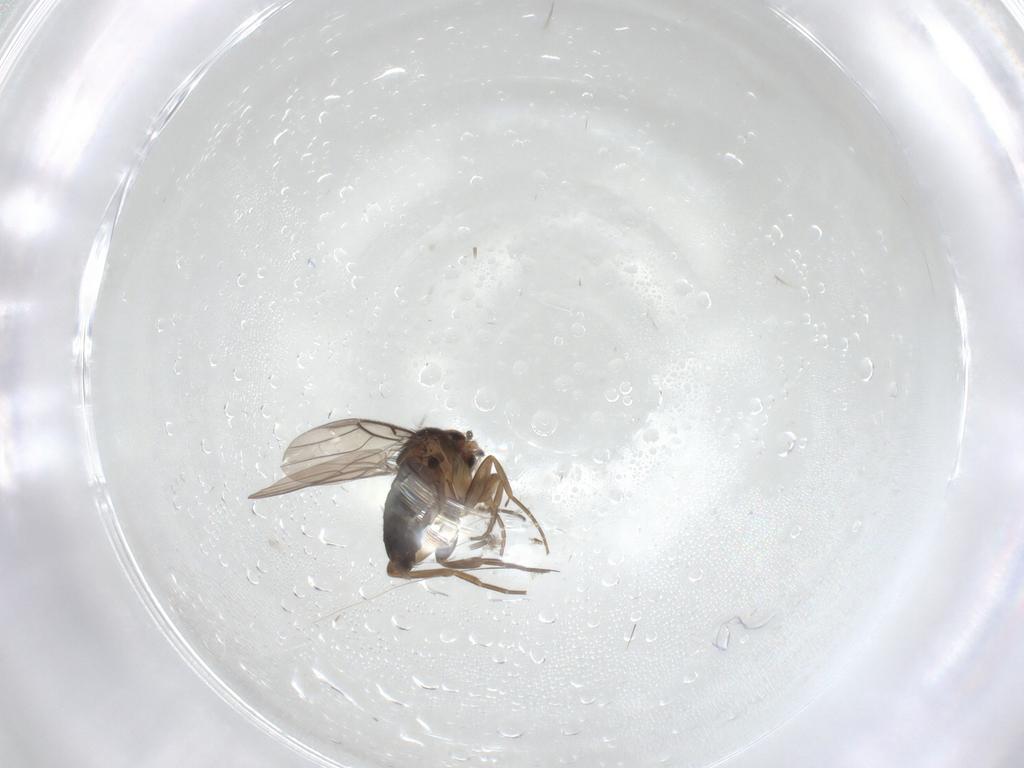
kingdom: Animalia
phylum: Arthropoda
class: Insecta
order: Diptera
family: Phoridae
